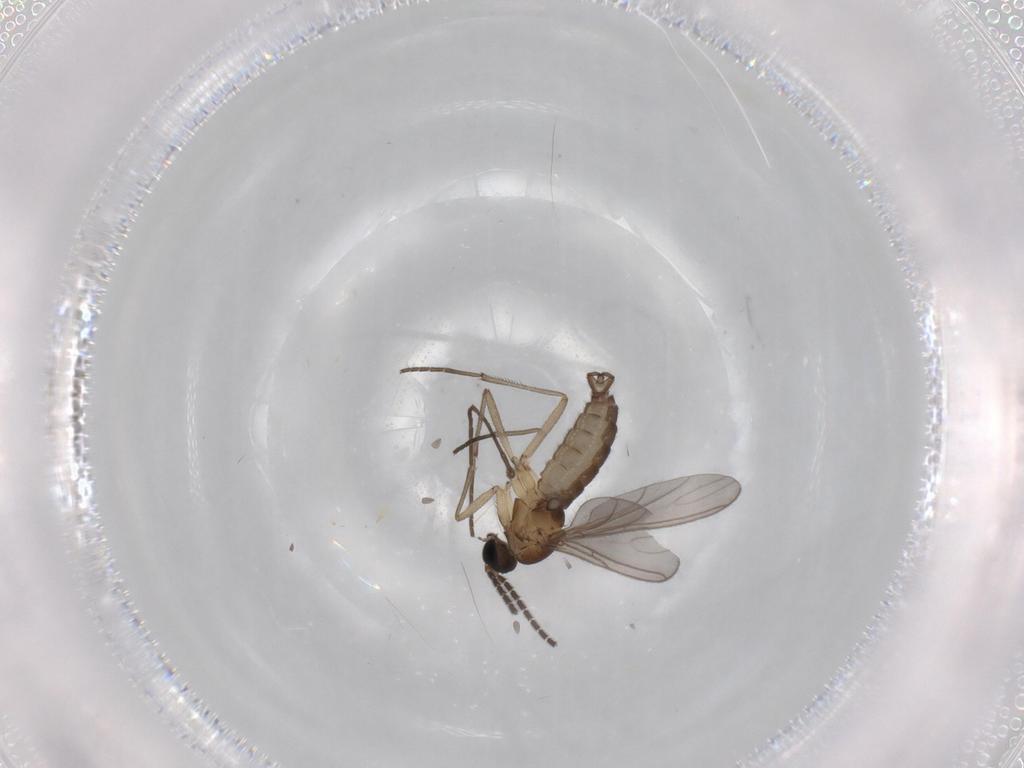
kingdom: Animalia
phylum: Arthropoda
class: Insecta
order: Diptera
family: Sciaridae
